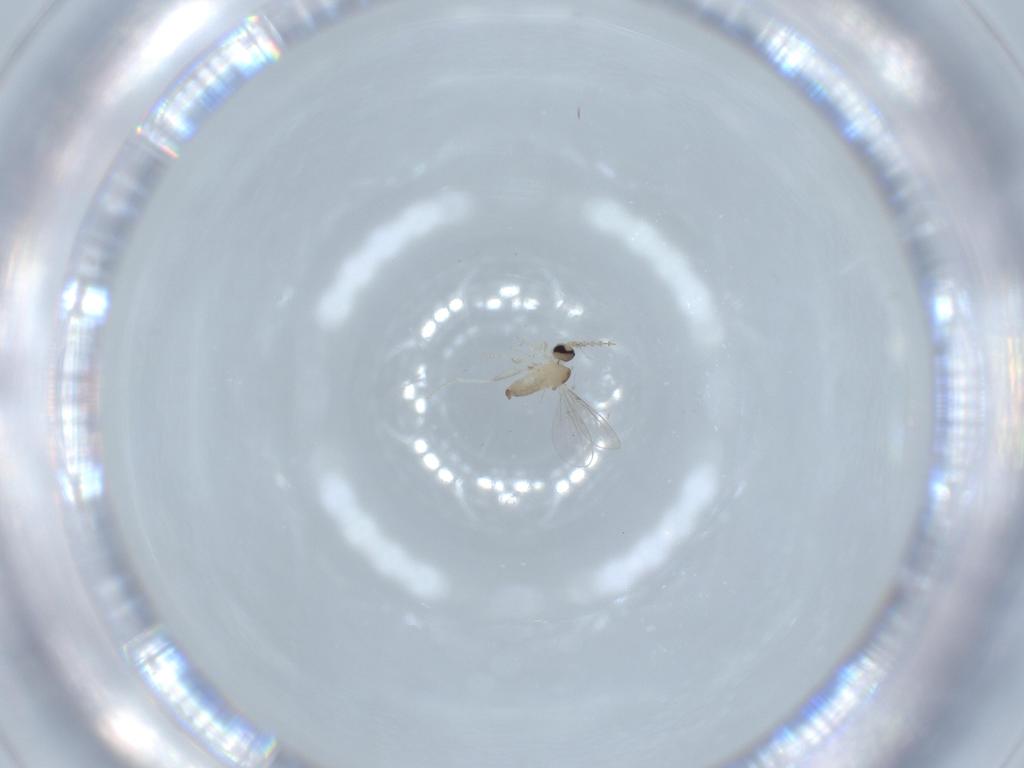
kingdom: Animalia
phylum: Arthropoda
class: Insecta
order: Diptera
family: Cecidomyiidae
